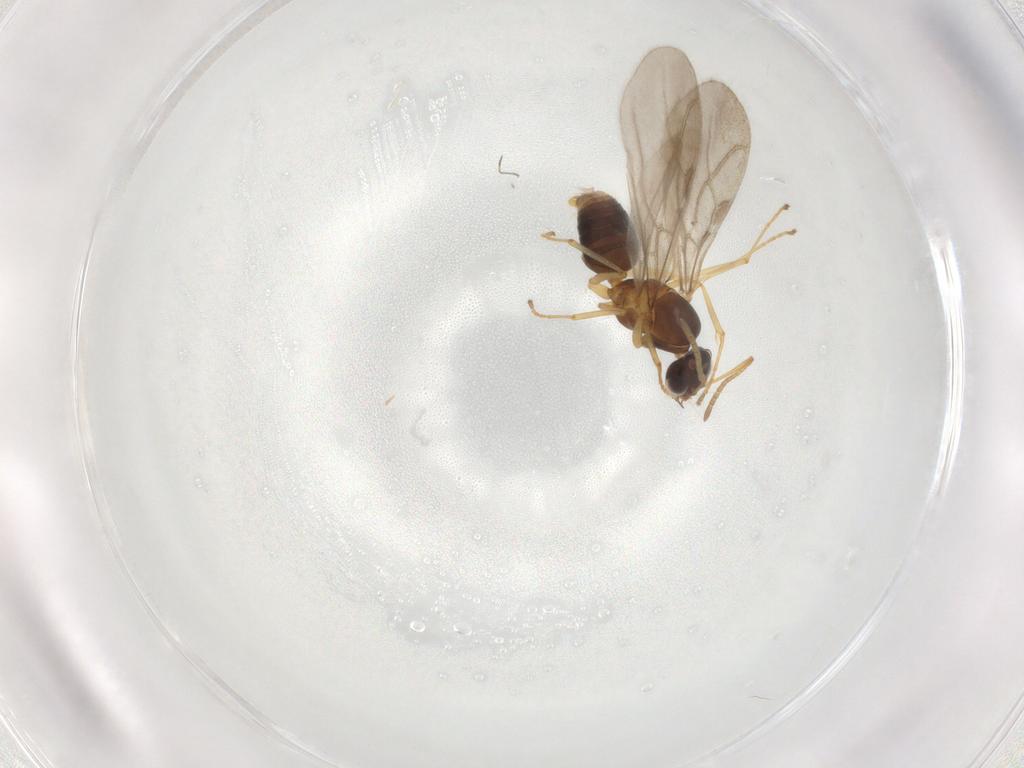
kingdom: Animalia
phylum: Arthropoda
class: Insecta
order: Hymenoptera
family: Formicidae
